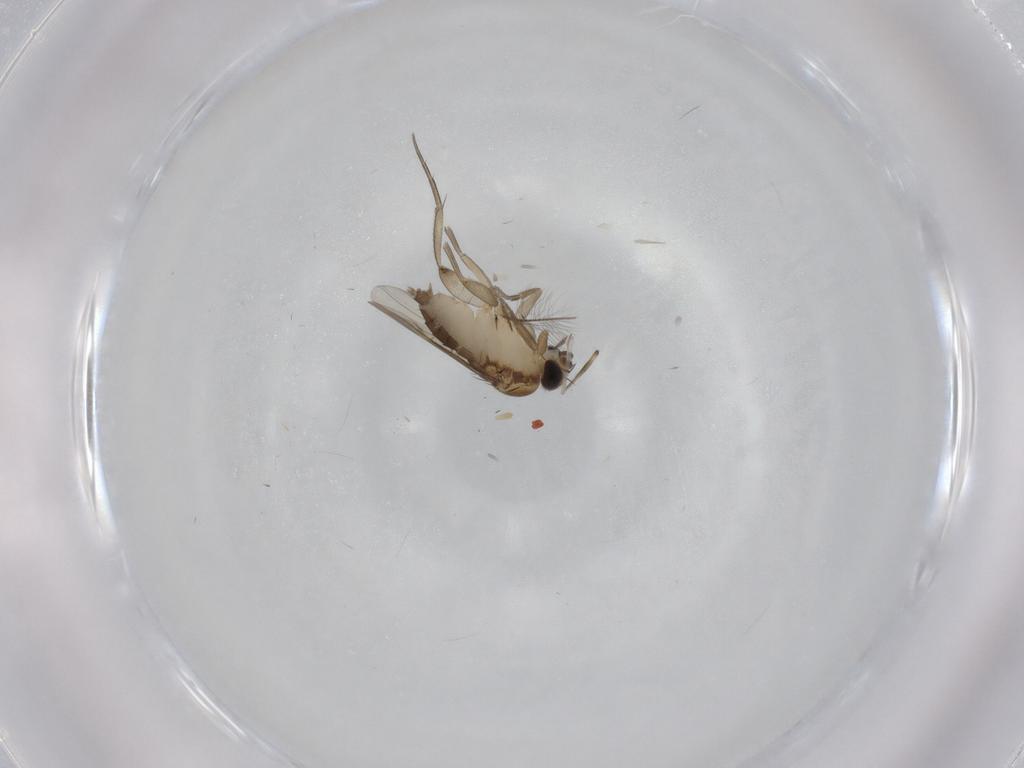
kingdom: Animalia
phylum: Arthropoda
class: Insecta
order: Diptera
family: Phoridae
